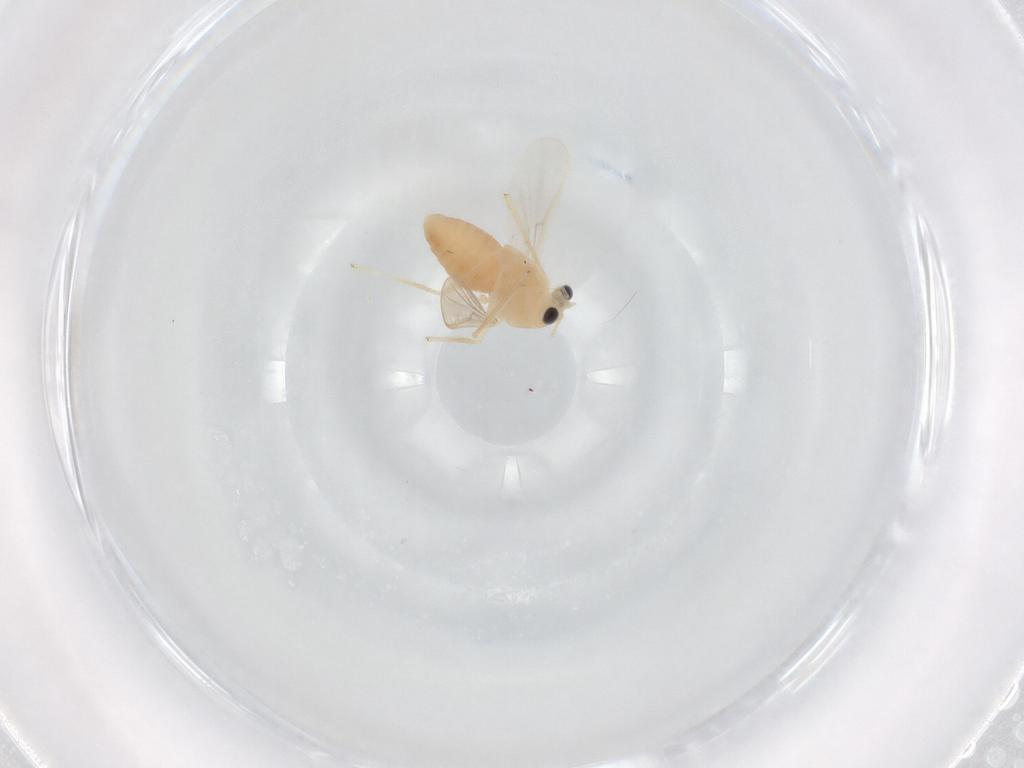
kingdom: Animalia
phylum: Arthropoda
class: Insecta
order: Diptera
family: Chironomidae
